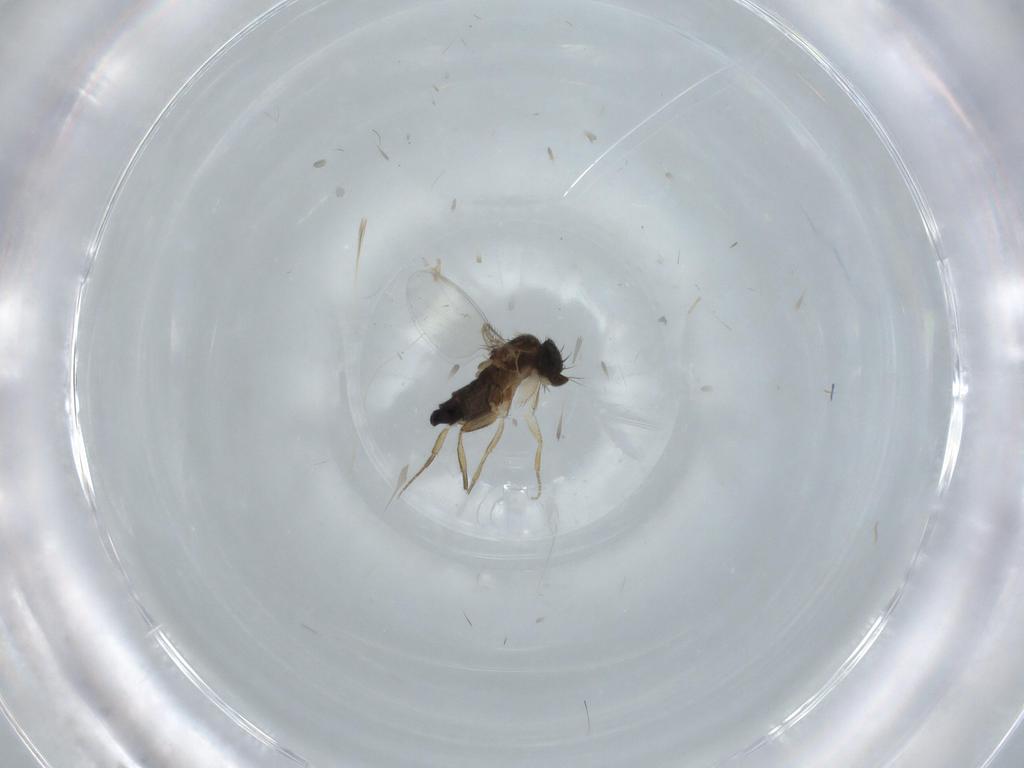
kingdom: Animalia
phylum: Arthropoda
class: Insecta
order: Diptera
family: Phoridae
